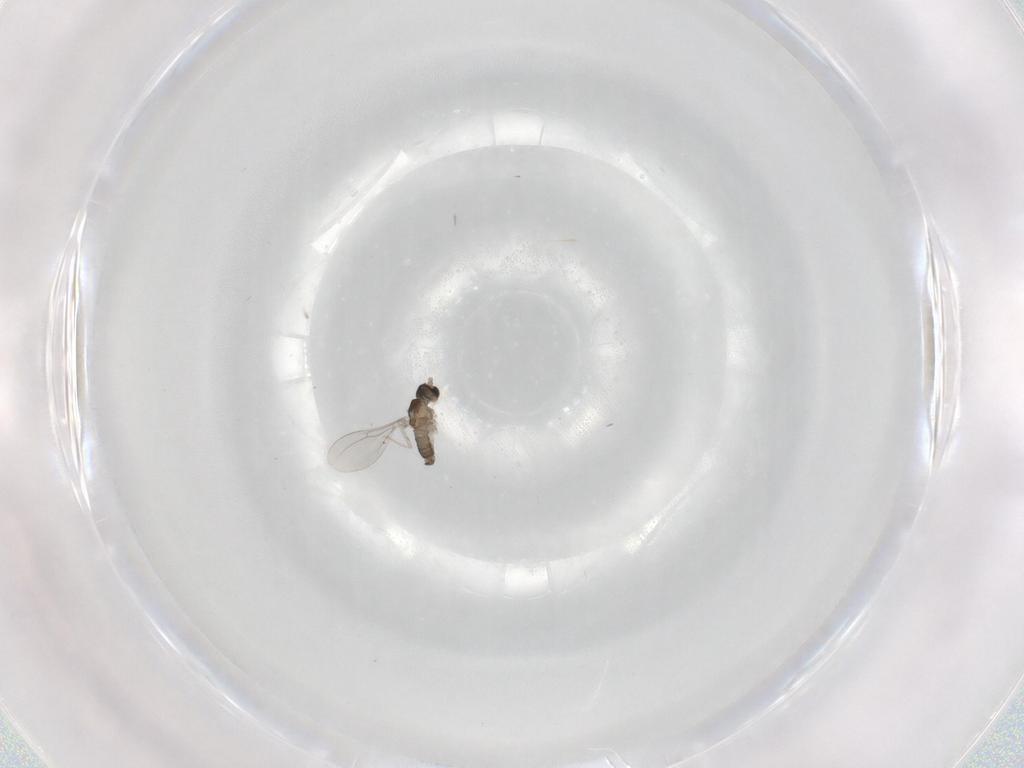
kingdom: Animalia
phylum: Arthropoda
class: Insecta
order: Diptera
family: Cecidomyiidae
